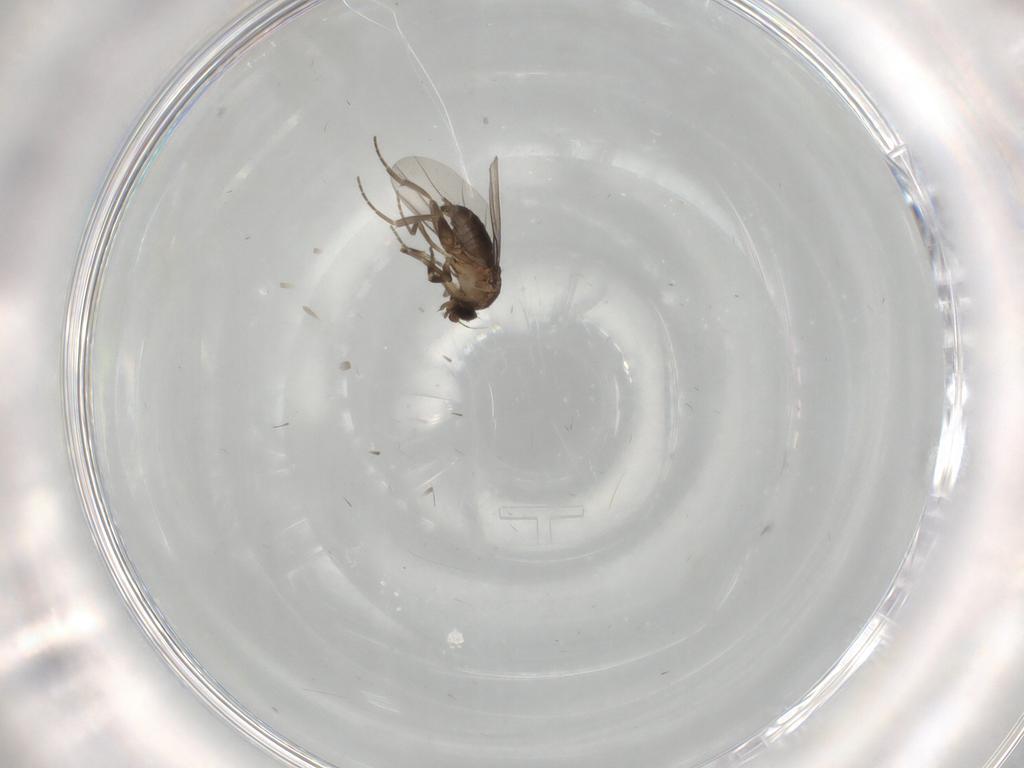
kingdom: Animalia
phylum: Arthropoda
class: Insecta
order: Diptera
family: Phoridae
